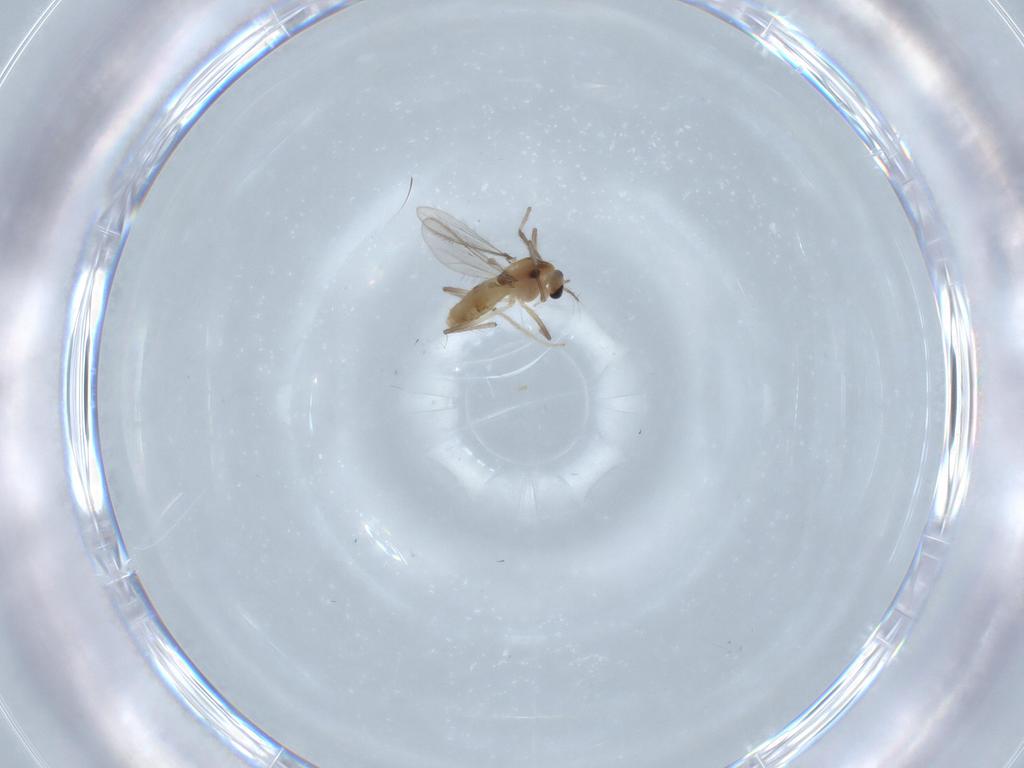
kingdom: Animalia
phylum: Arthropoda
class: Insecta
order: Diptera
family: Chironomidae
